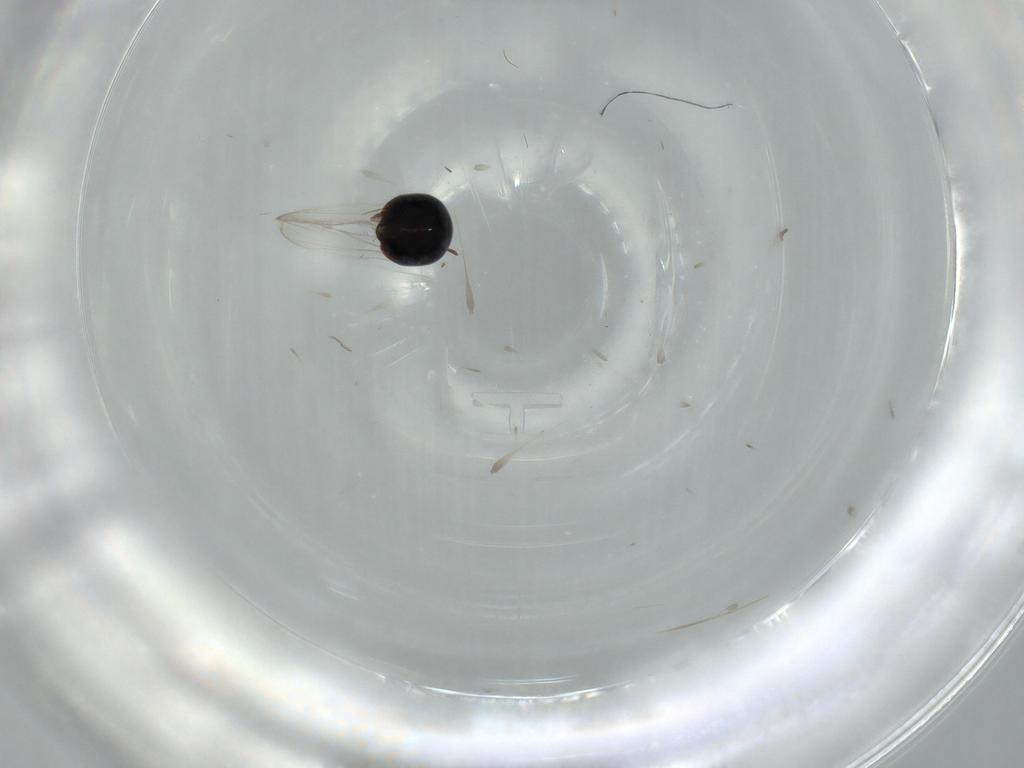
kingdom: Animalia
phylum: Arthropoda
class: Insecta
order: Coleoptera
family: Corylophidae
